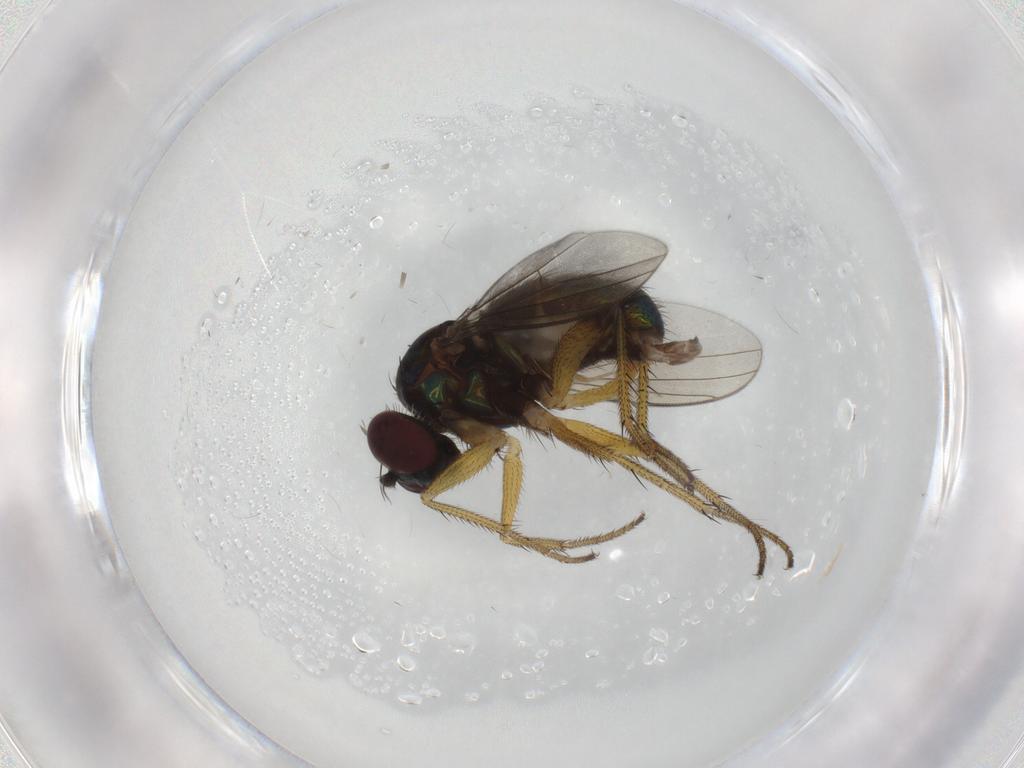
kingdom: Animalia
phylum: Arthropoda
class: Insecta
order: Diptera
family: Dolichopodidae
